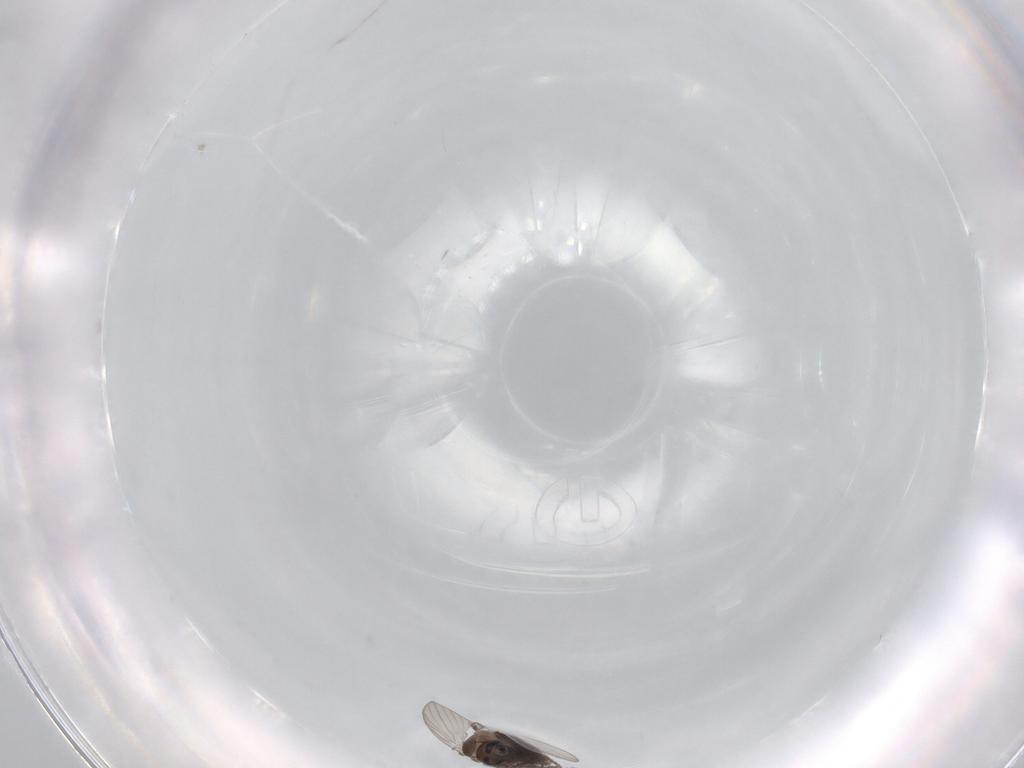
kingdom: Animalia
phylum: Arthropoda
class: Insecta
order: Diptera
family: Psychodidae
